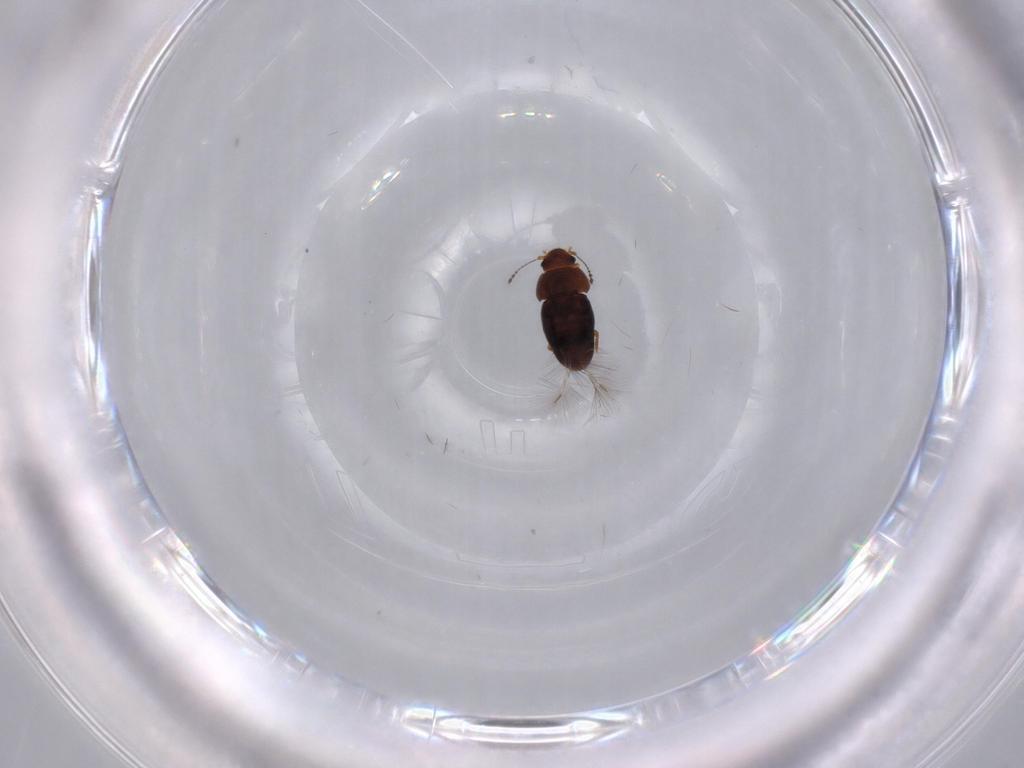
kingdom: Animalia
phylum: Arthropoda
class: Insecta
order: Coleoptera
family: Ptiliidae
